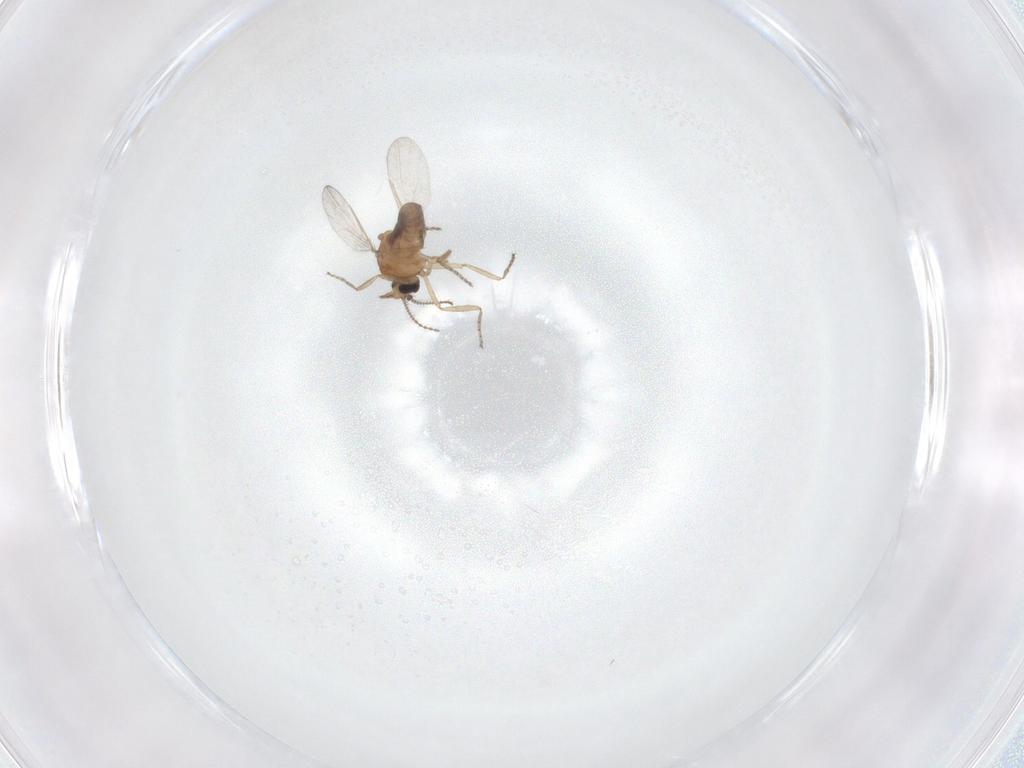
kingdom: Animalia
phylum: Arthropoda
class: Insecta
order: Diptera
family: Ceratopogonidae
